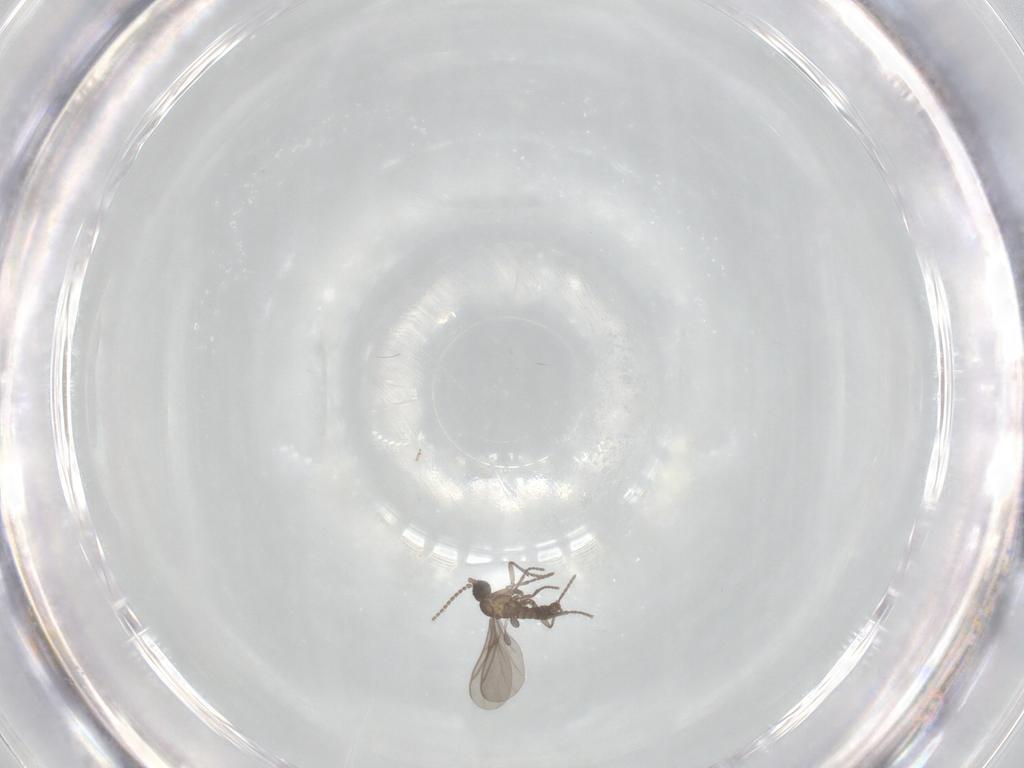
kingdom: Animalia
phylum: Arthropoda
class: Insecta
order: Diptera
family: Sciaridae
